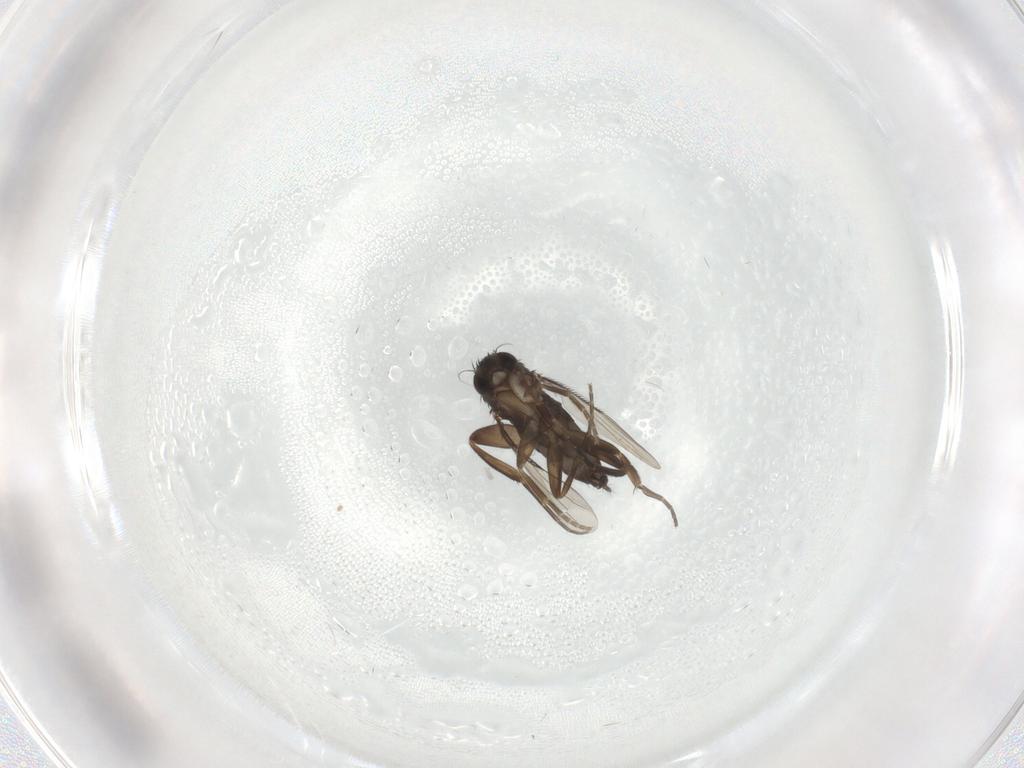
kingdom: Animalia
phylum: Arthropoda
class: Insecta
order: Diptera
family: Phoridae
